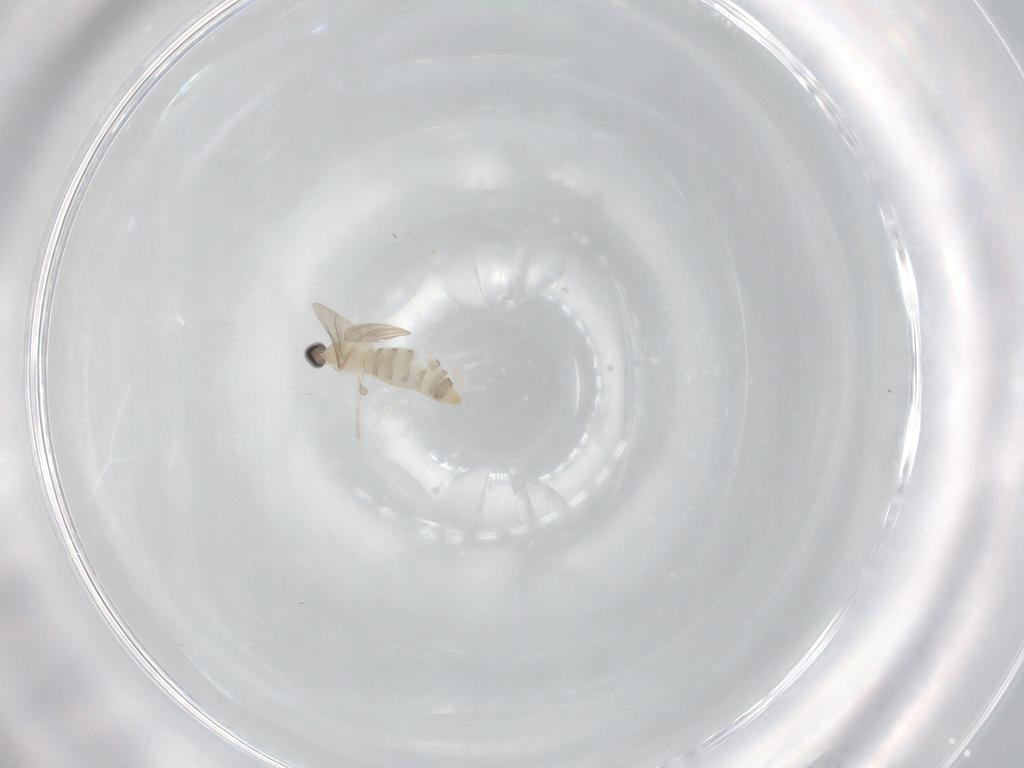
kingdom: Animalia
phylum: Arthropoda
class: Insecta
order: Diptera
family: Cecidomyiidae
